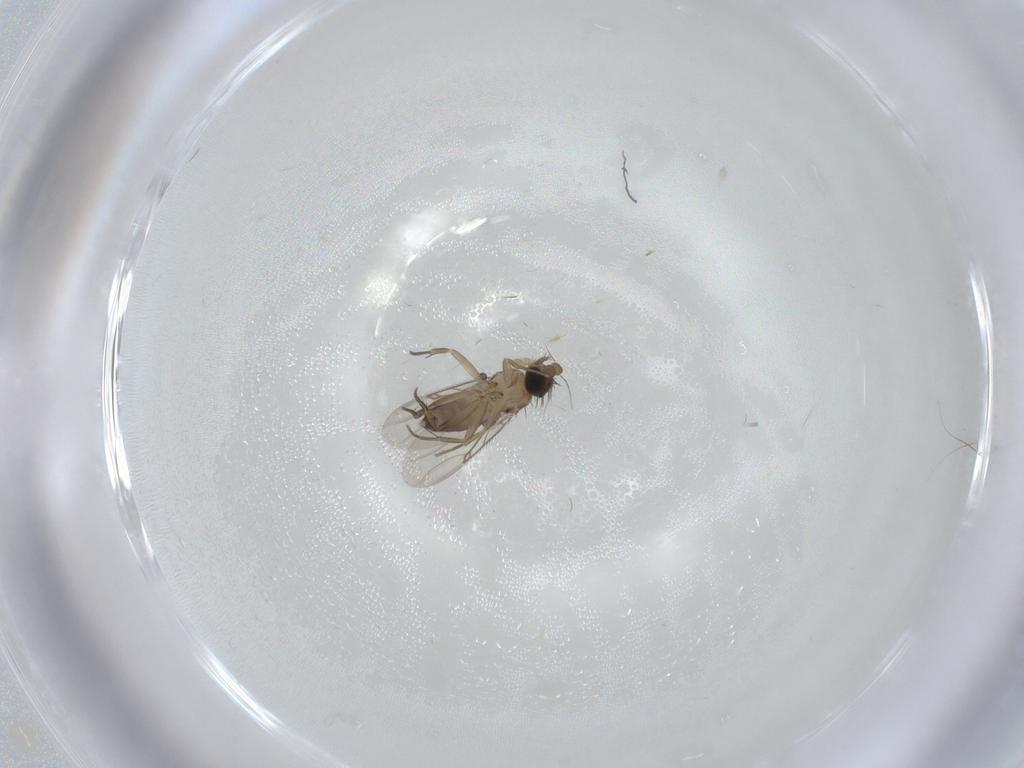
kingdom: Animalia
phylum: Arthropoda
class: Insecta
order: Diptera
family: Phoridae
